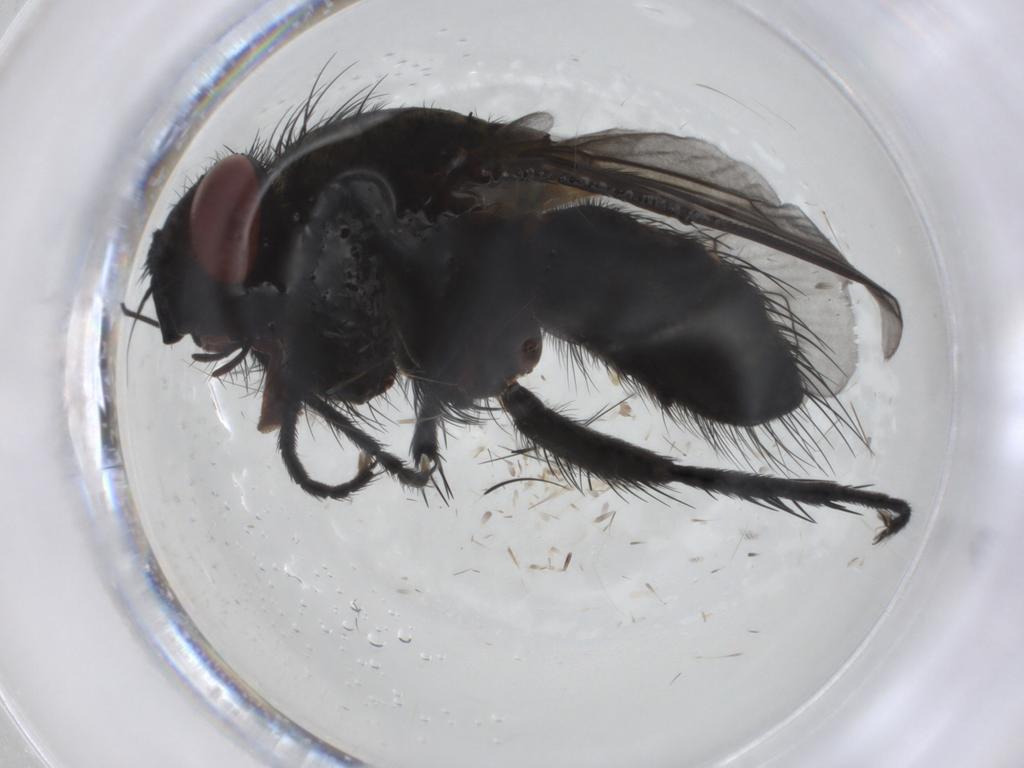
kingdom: Animalia
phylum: Arthropoda
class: Insecta
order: Diptera
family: Tachinidae
